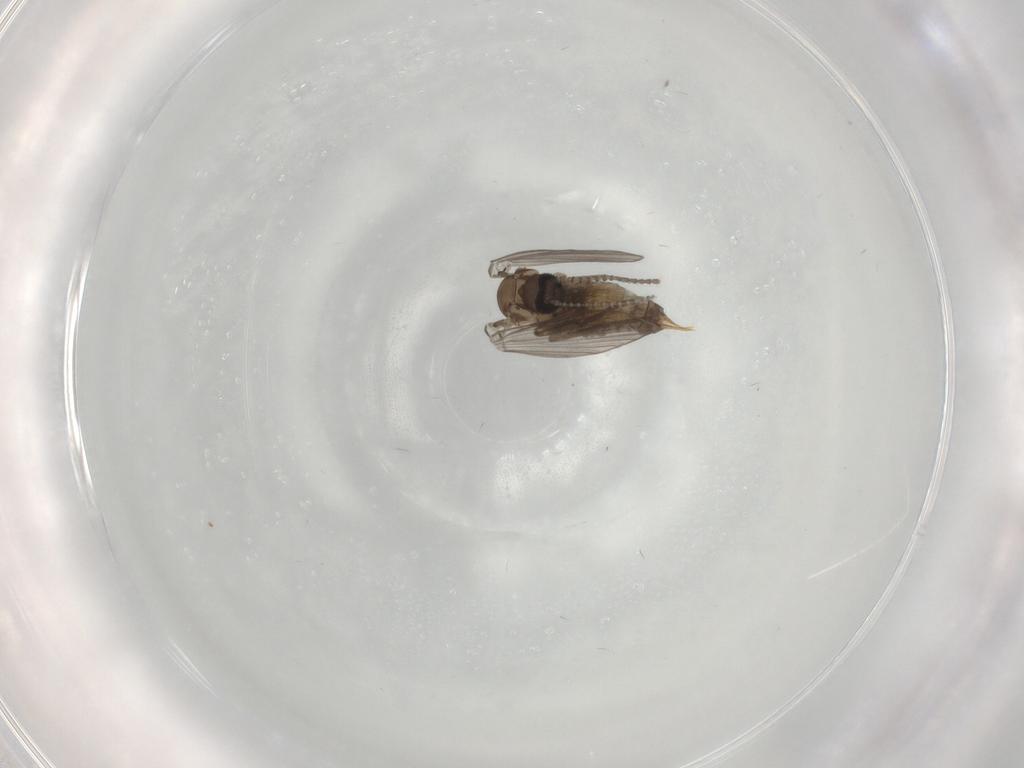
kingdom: Animalia
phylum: Arthropoda
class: Insecta
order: Diptera
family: Psychodidae
